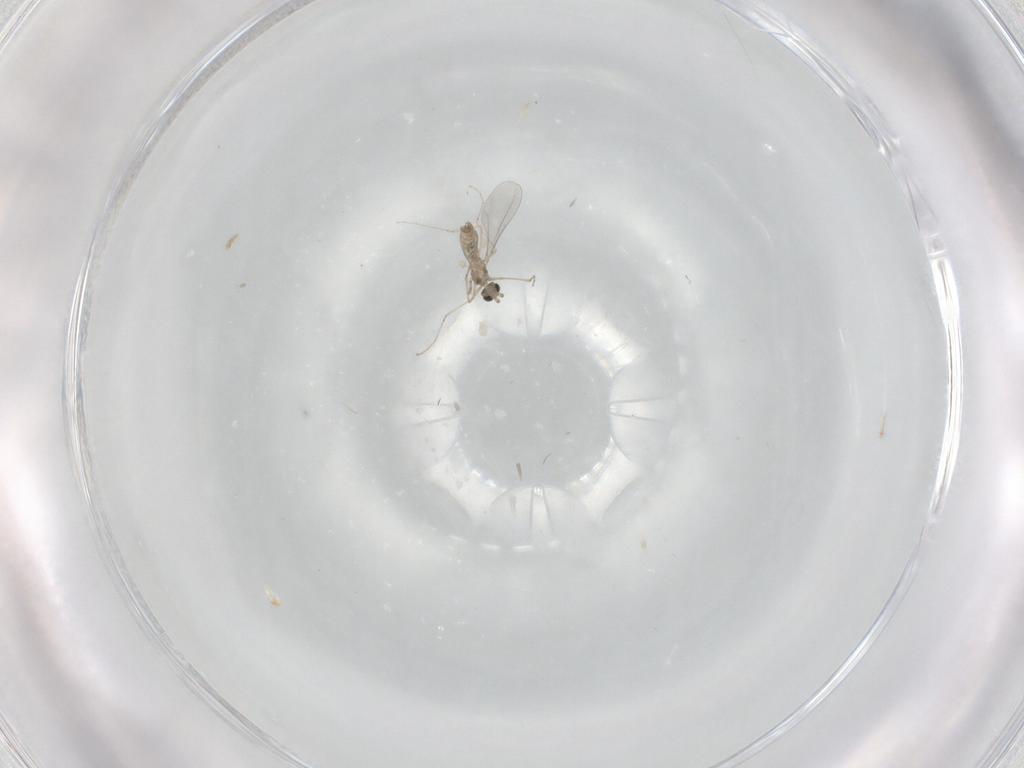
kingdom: Animalia
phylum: Arthropoda
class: Insecta
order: Diptera
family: Chironomidae
